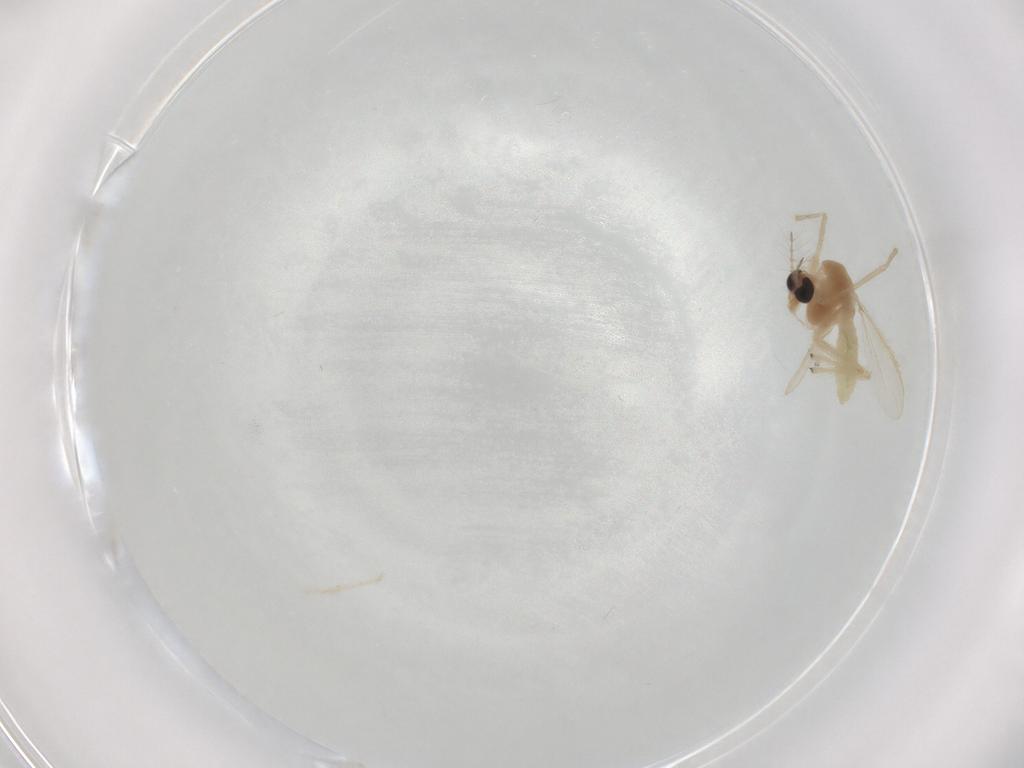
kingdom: Animalia
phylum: Arthropoda
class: Insecta
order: Diptera
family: Chironomidae
